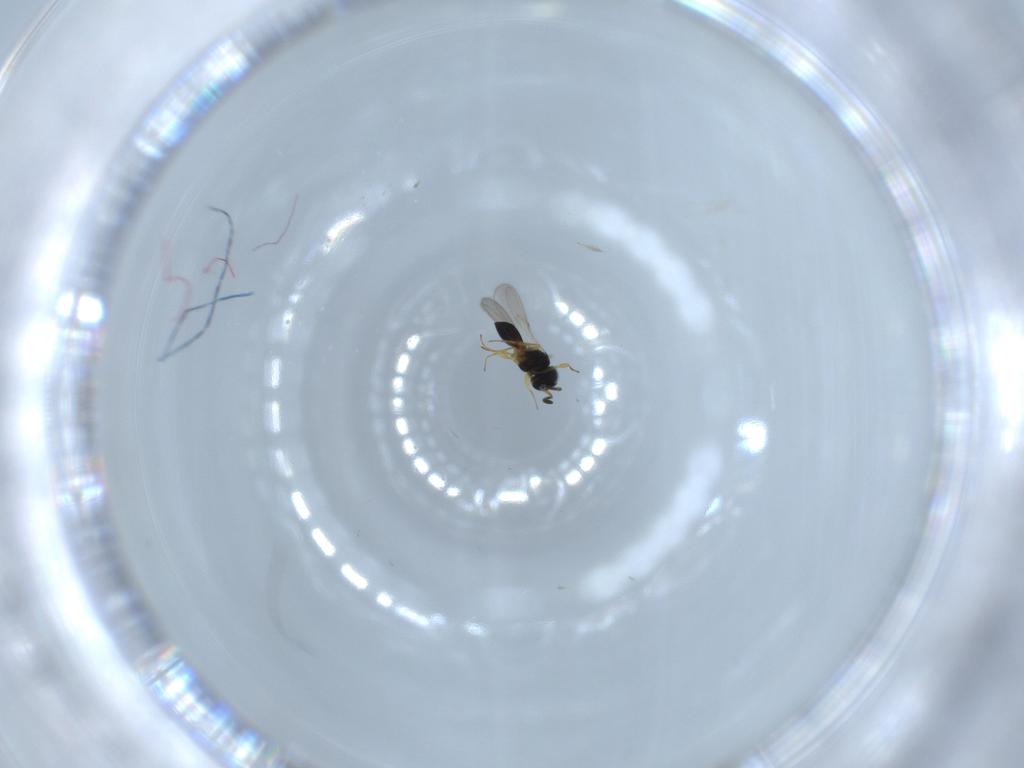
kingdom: Animalia
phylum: Arthropoda
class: Insecta
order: Hymenoptera
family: Scelionidae
